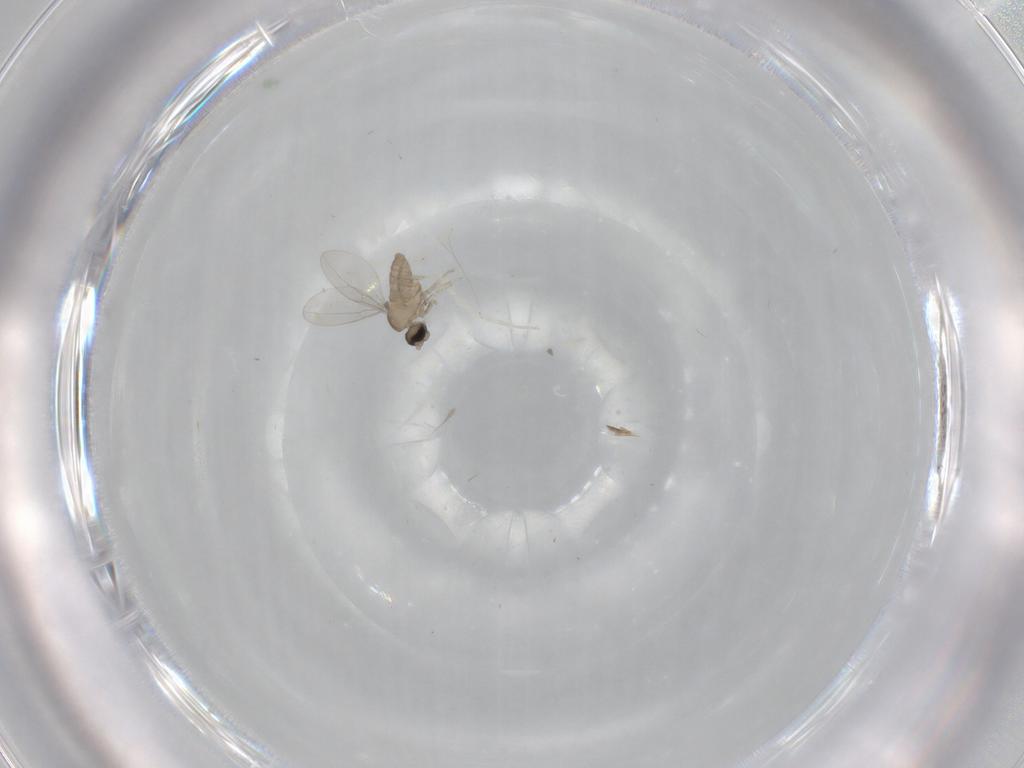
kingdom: Animalia
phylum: Arthropoda
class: Insecta
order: Diptera
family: Cecidomyiidae
